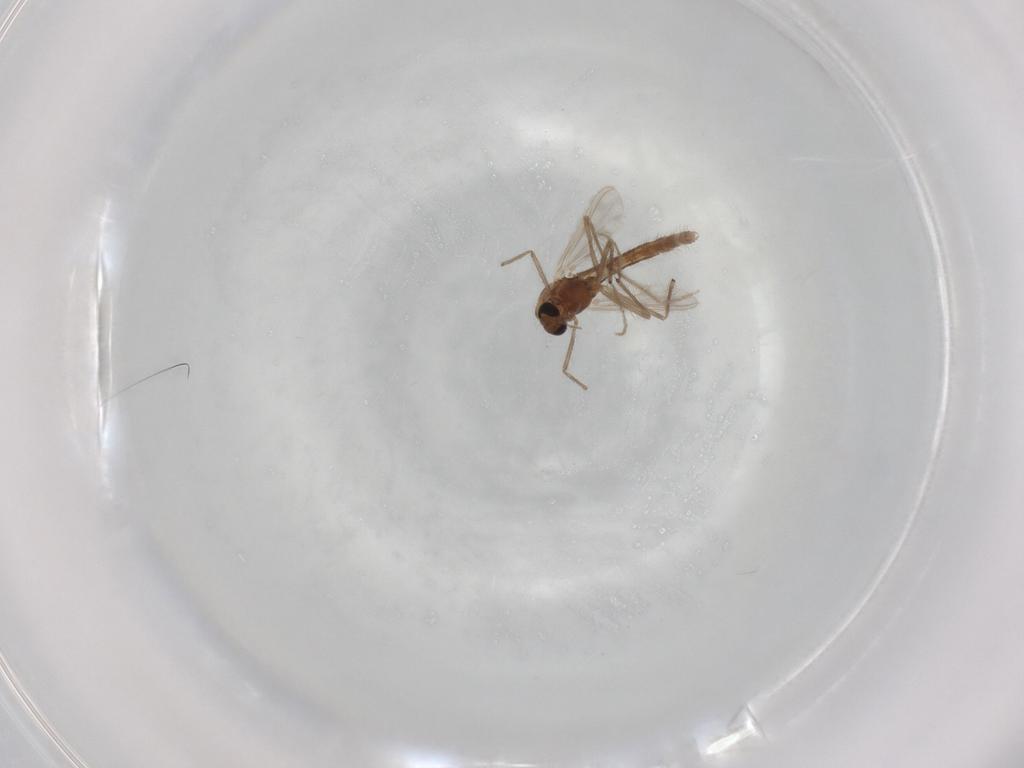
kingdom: Animalia
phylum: Arthropoda
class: Insecta
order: Diptera
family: Chironomidae
